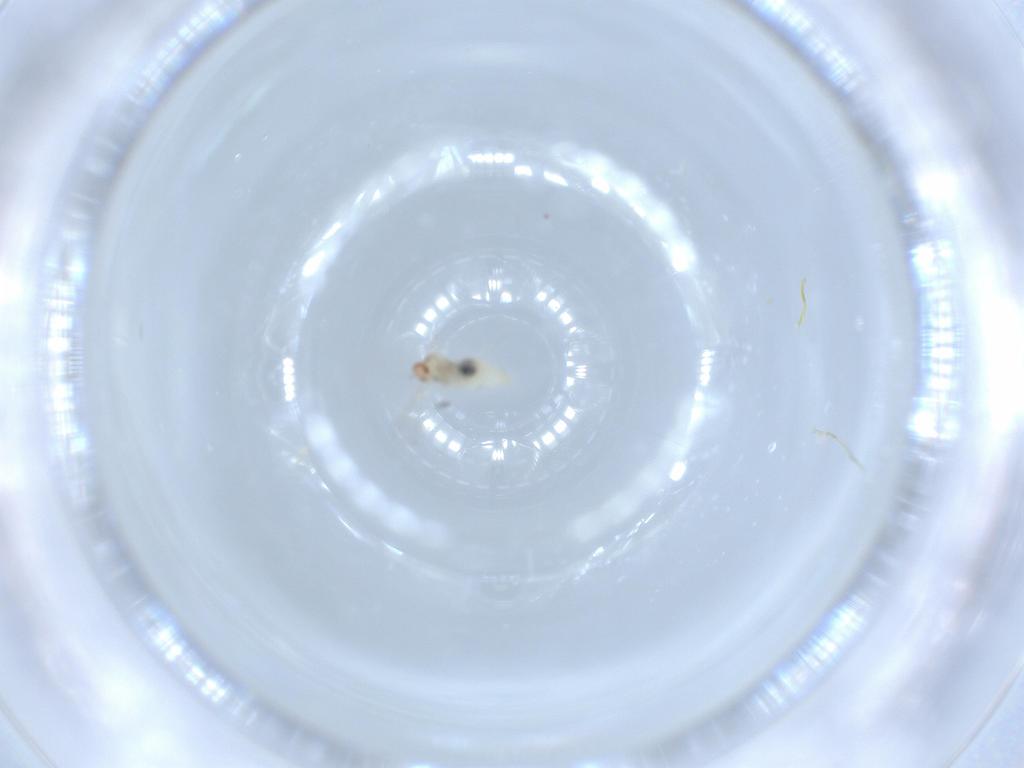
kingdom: Animalia
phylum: Arthropoda
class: Insecta
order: Diptera
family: Cecidomyiidae
